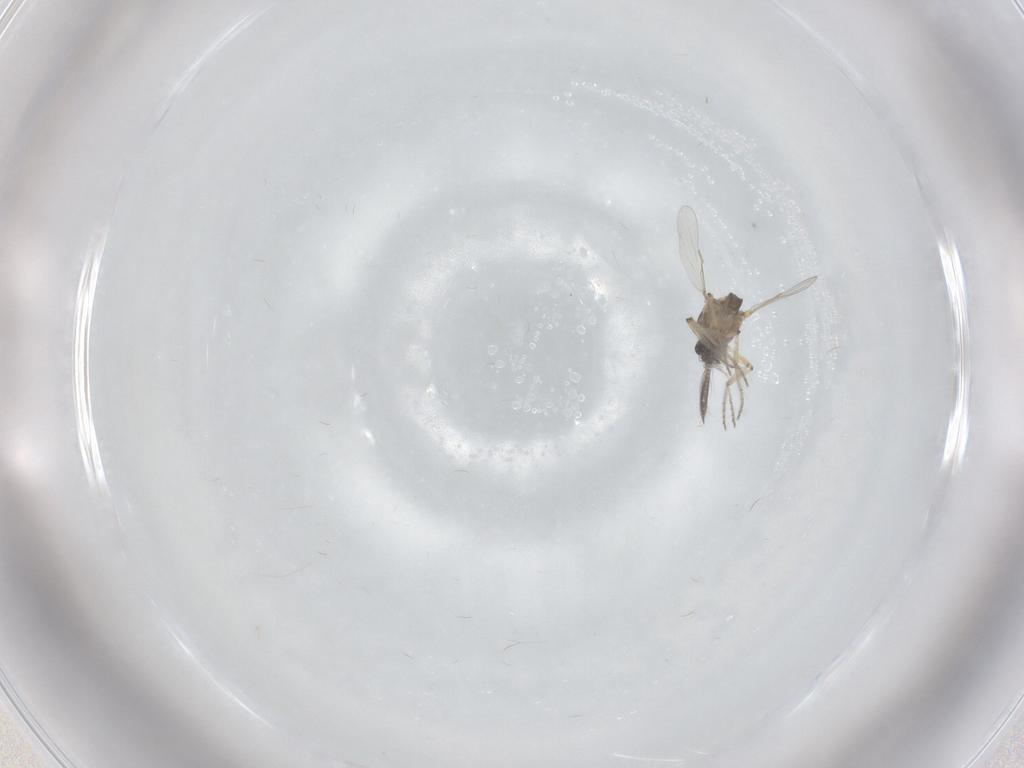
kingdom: Animalia
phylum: Arthropoda
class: Insecta
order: Diptera
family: Ceratopogonidae
